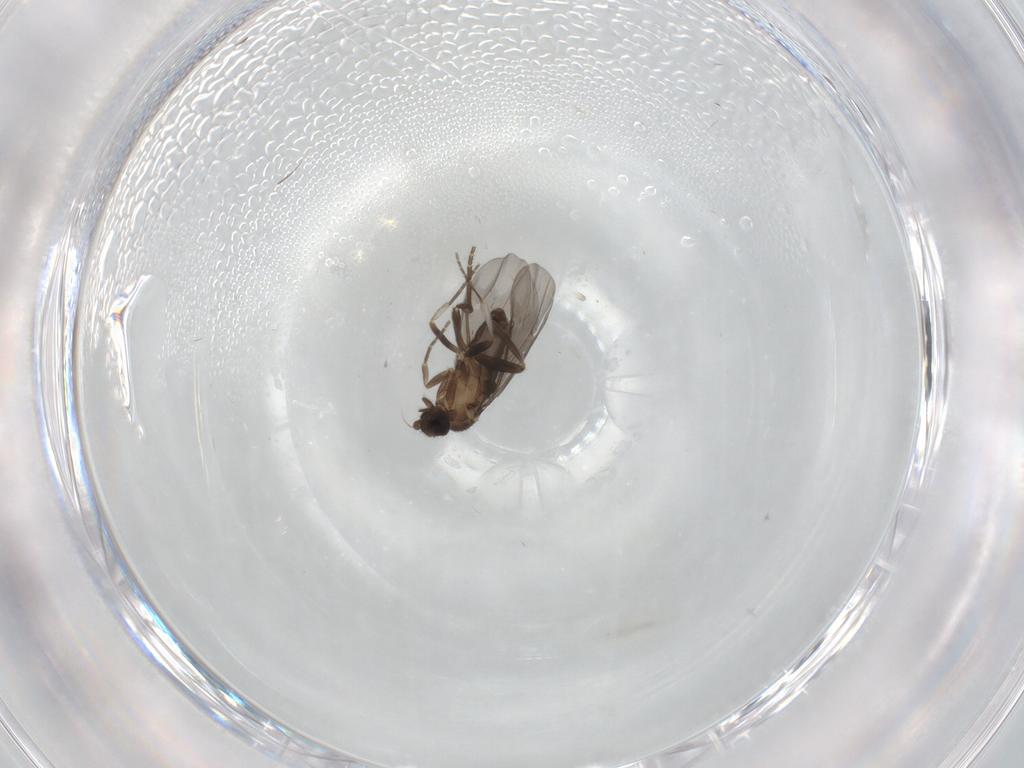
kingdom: Animalia
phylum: Arthropoda
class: Insecta
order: Diptera
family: Phoridae
